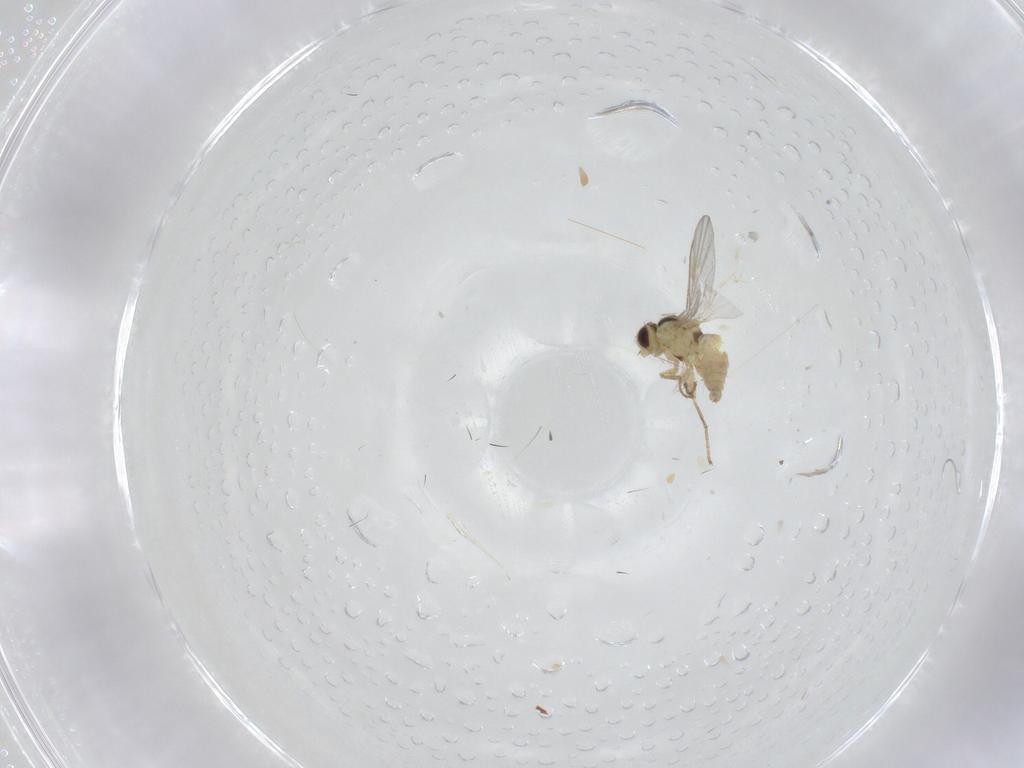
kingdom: Animalia
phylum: Arthropoda
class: Insecta
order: Diptera
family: Agromyzidae
